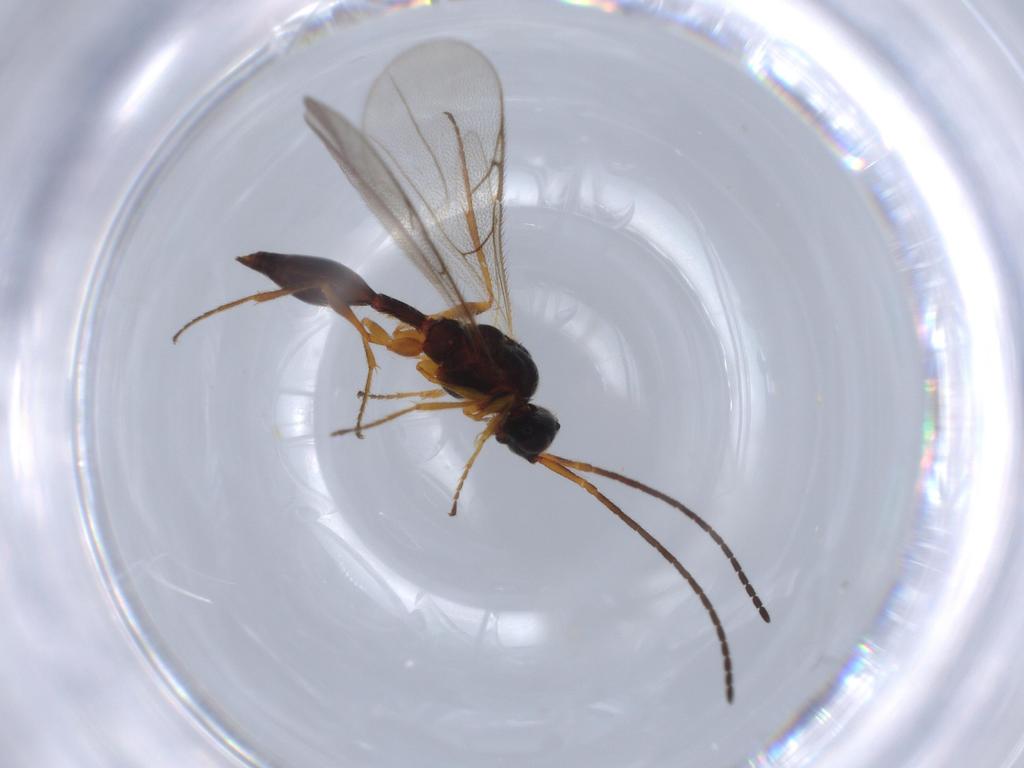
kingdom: Animalia
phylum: Arthropoda
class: Insecta
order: Hymenoptera
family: Ichneumonidae
